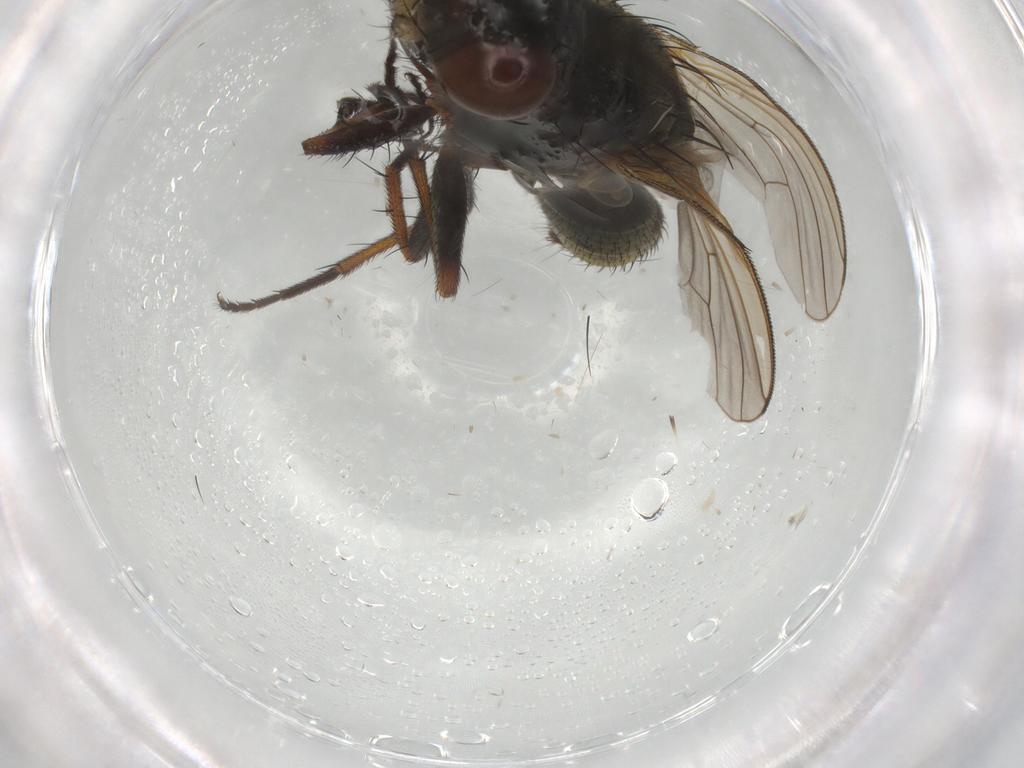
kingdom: Animalia
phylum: Arthropoda
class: Insecta
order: Diptera
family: Muscidae
